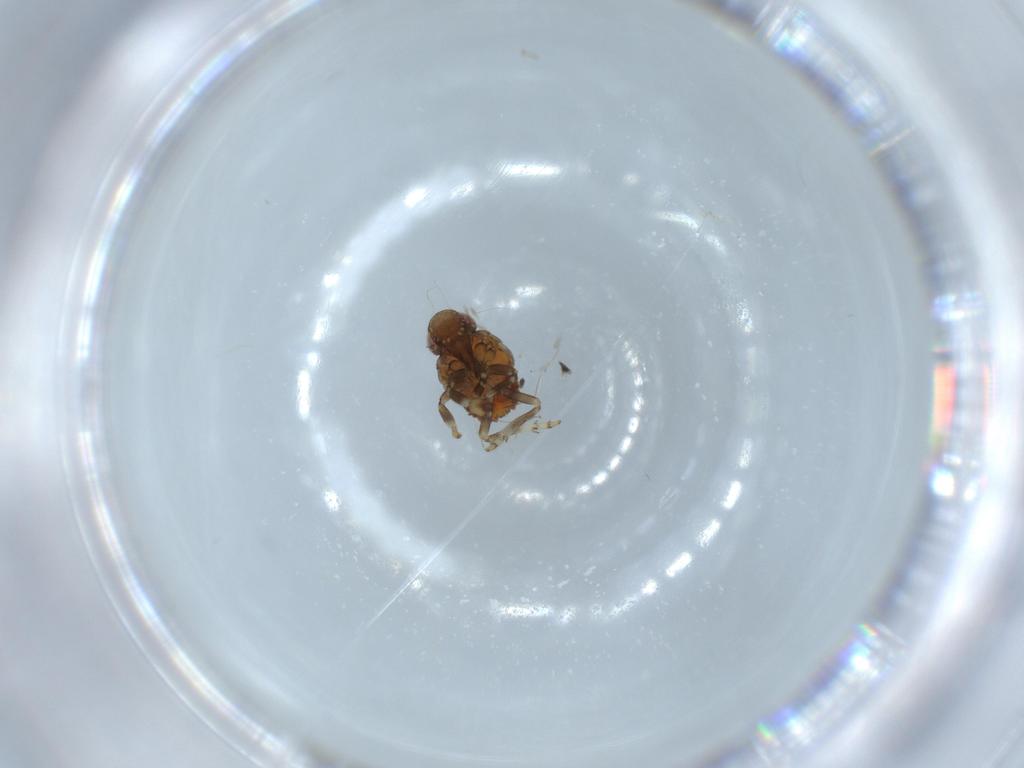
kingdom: Animalia
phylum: Arthropoda
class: Insecta
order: Hemiptera
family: Issidae
